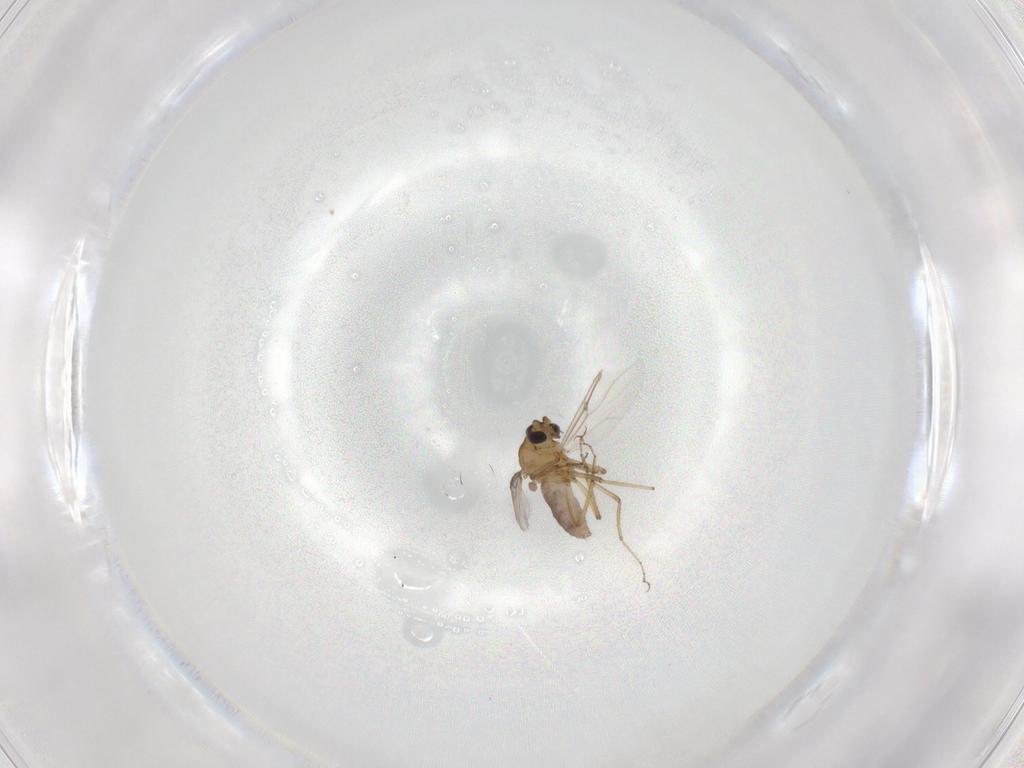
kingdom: Animalia
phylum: Arthropoda
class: Insecta
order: Diptera
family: Ceratopogonidae
